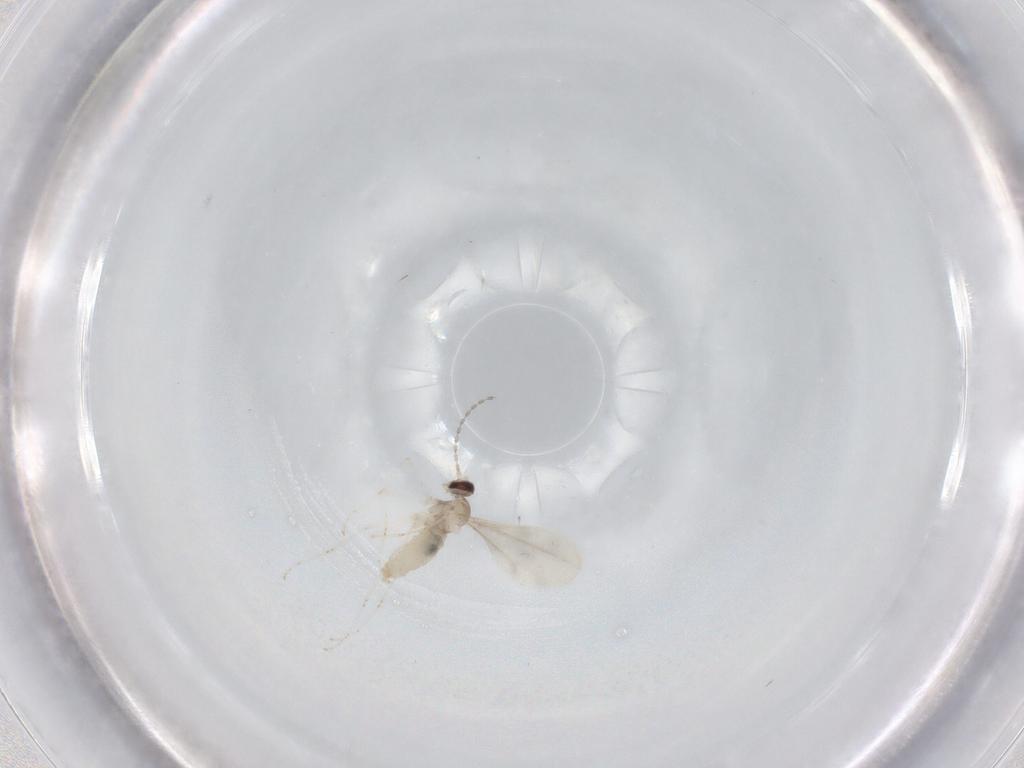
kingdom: Animalia
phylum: Arthropoda
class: Insecta
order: Diptera
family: Cecidomyiidae
